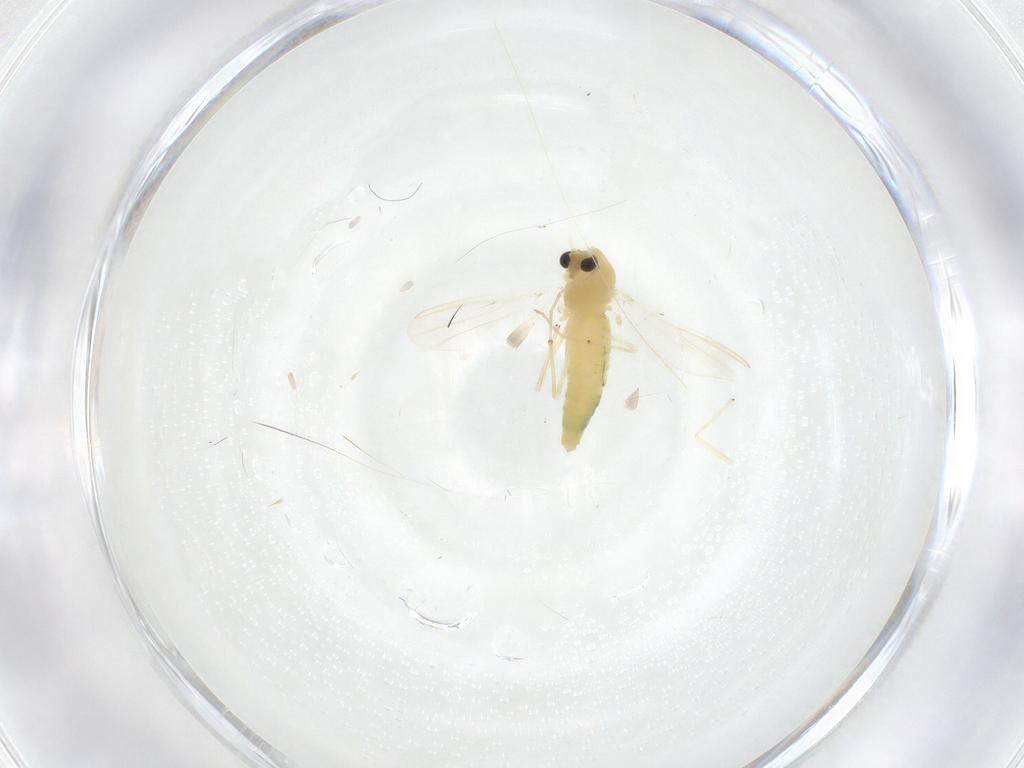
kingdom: Animalia
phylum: Arthropoda
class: Insecta
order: Diptera
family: Chironomidae
